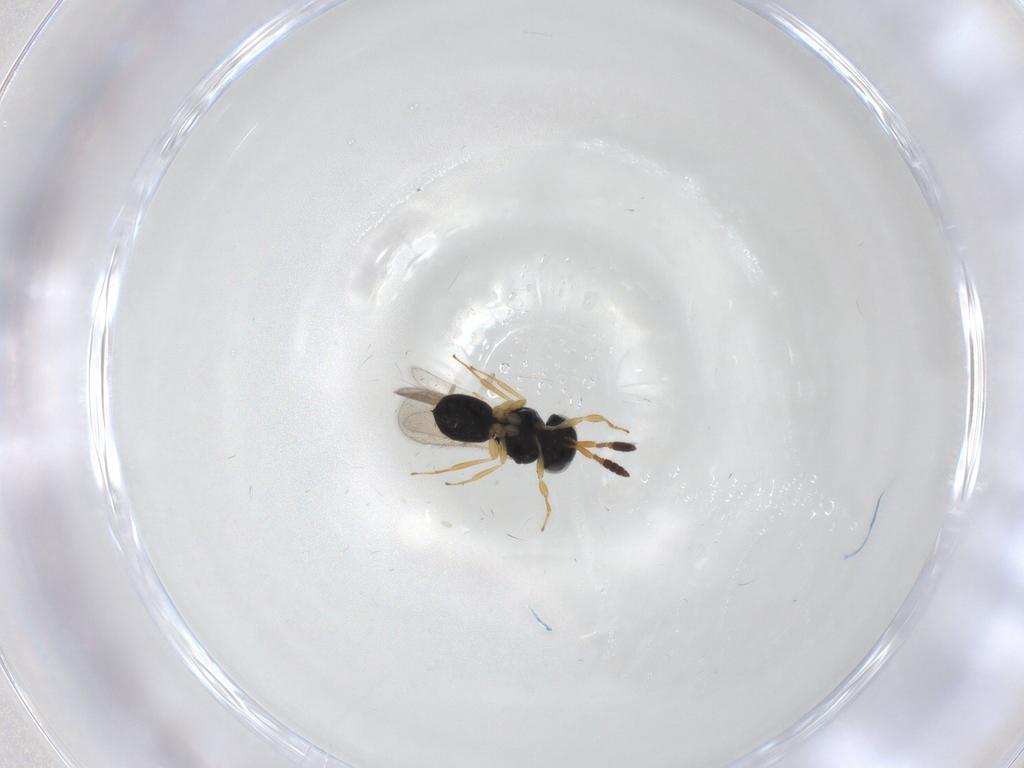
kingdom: Animalia
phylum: Arthropoda
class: Insecta
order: Hymenoptera
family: Scelionidae
